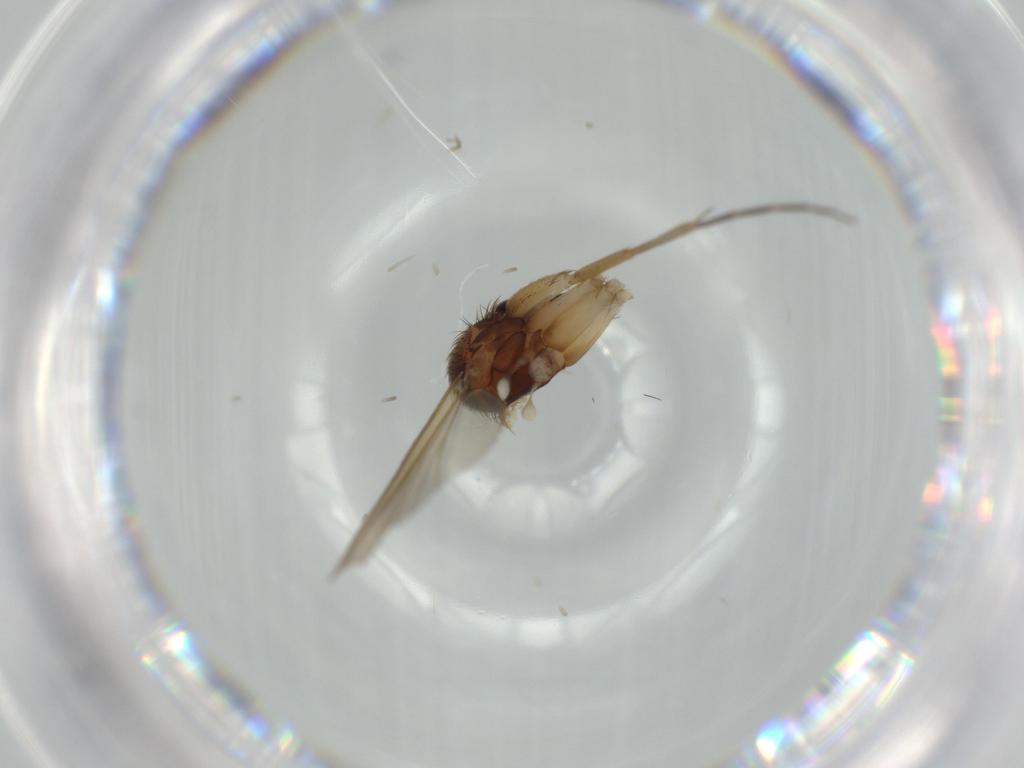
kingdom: Animalia
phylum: Arthropoda
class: Insecta
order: Diptera
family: Mycetophilidae
